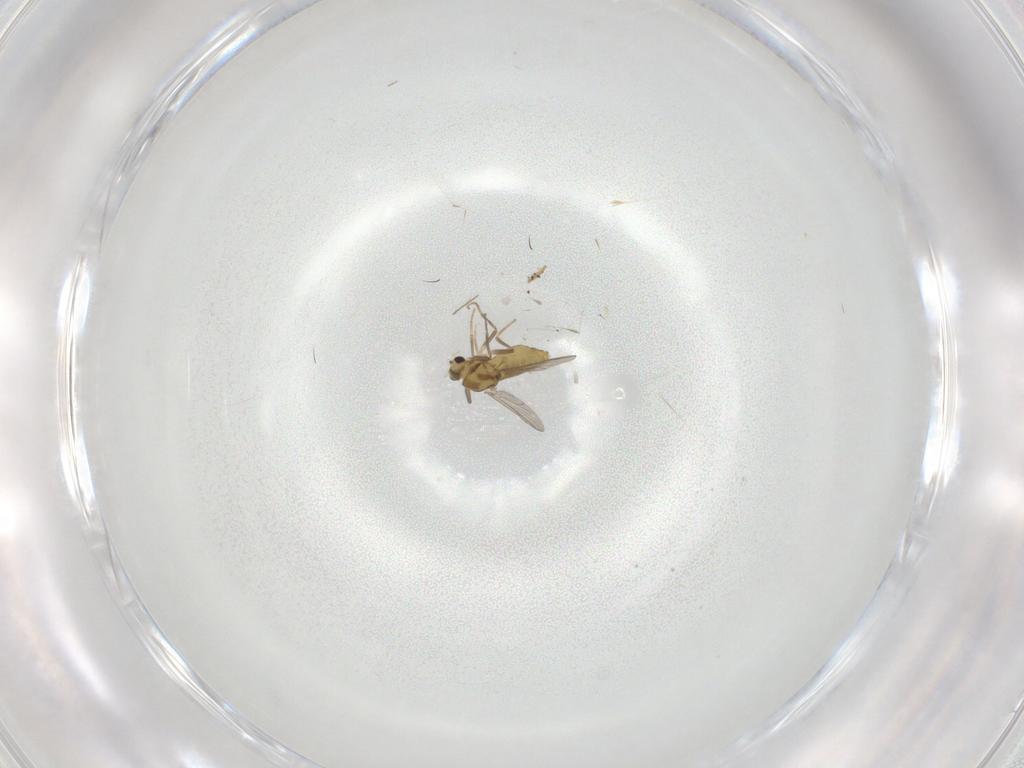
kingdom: Animalia
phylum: Arthropoda
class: Insecta
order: Diptera
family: Chironomidae
